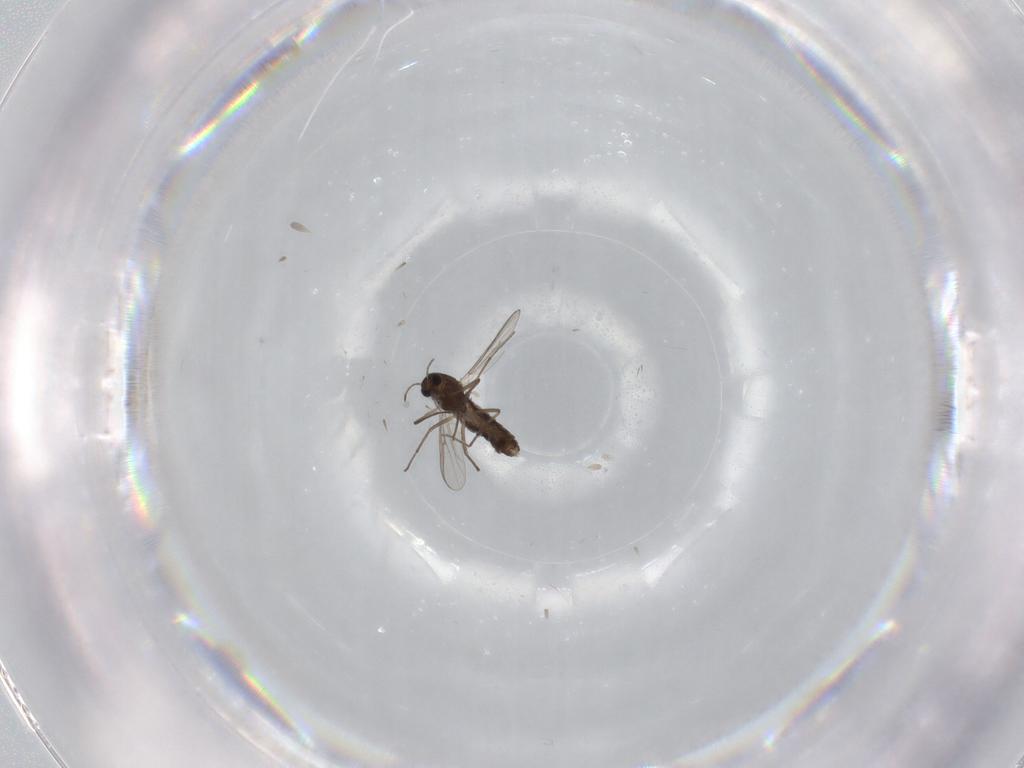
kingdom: Animalia
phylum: Arthropoda
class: Insecta
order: Diptera
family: Chironomidae
